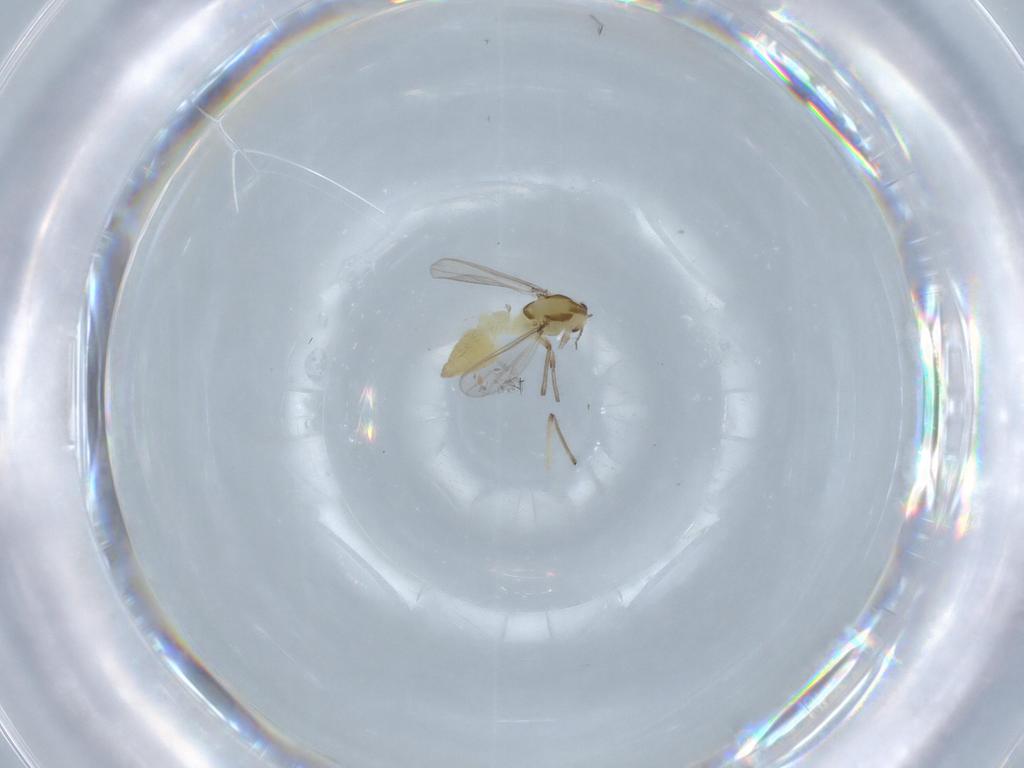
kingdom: Animalia
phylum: Arthropoda
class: Insecta
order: Diptera
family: Chironomidae
